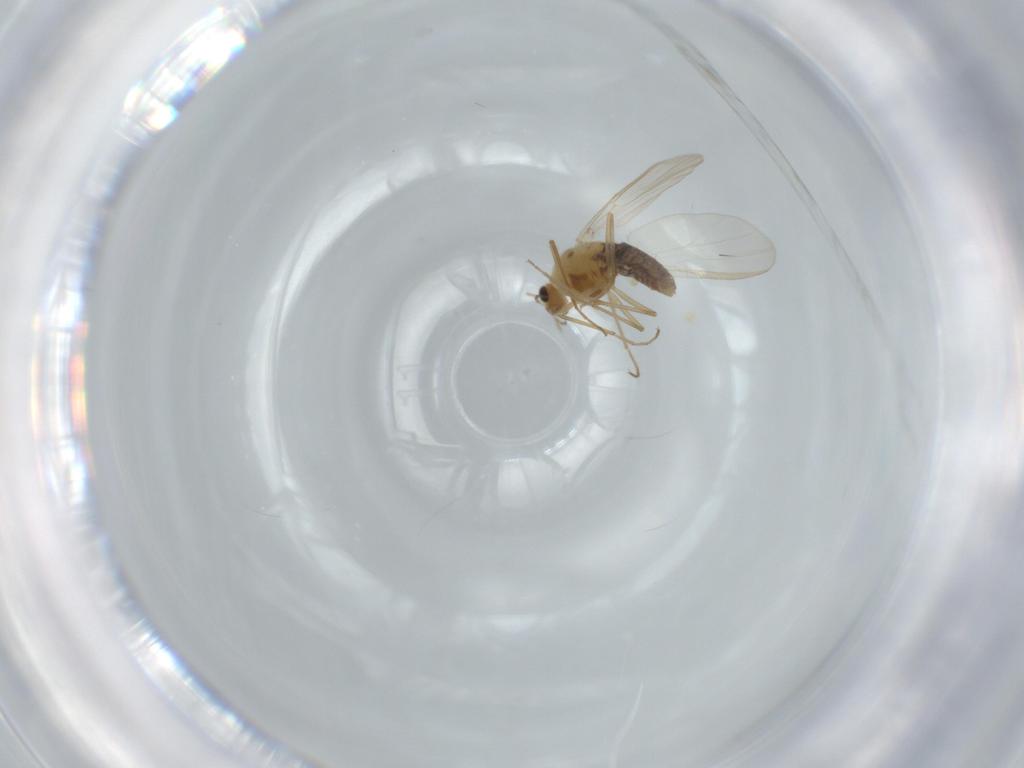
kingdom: Animalia
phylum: Arthropoda
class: Insecta
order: Diptera
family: Chironomidae
